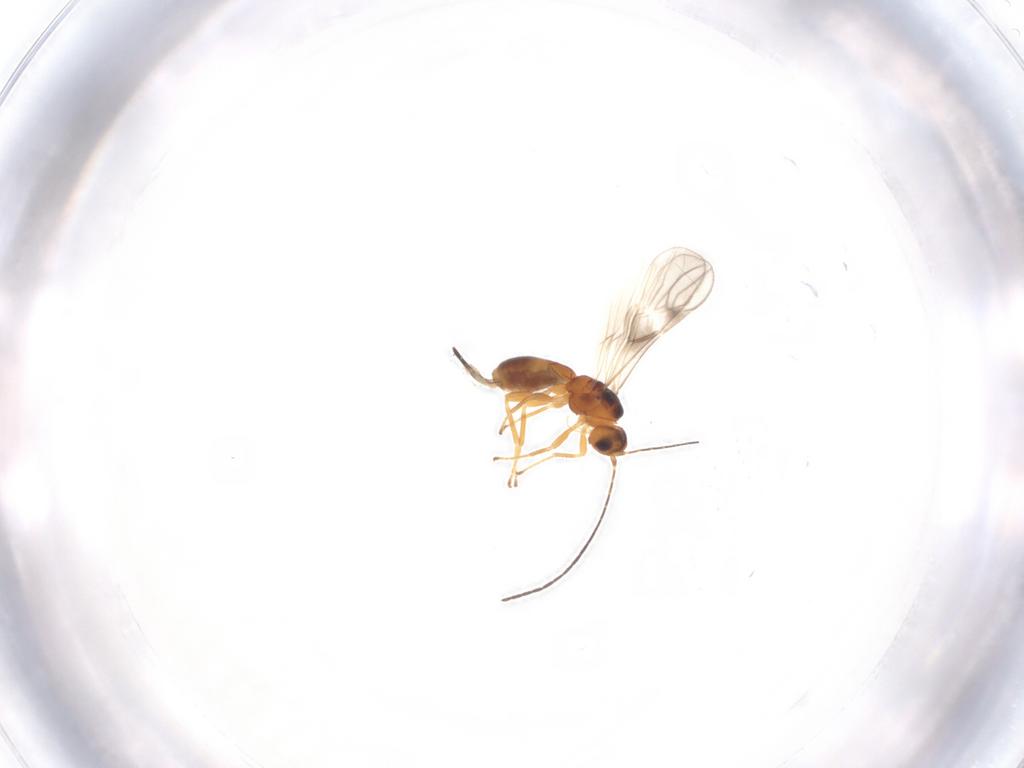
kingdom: Animalia
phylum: Arthropoda
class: Insecta
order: Hymenoptera
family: Braconidae
